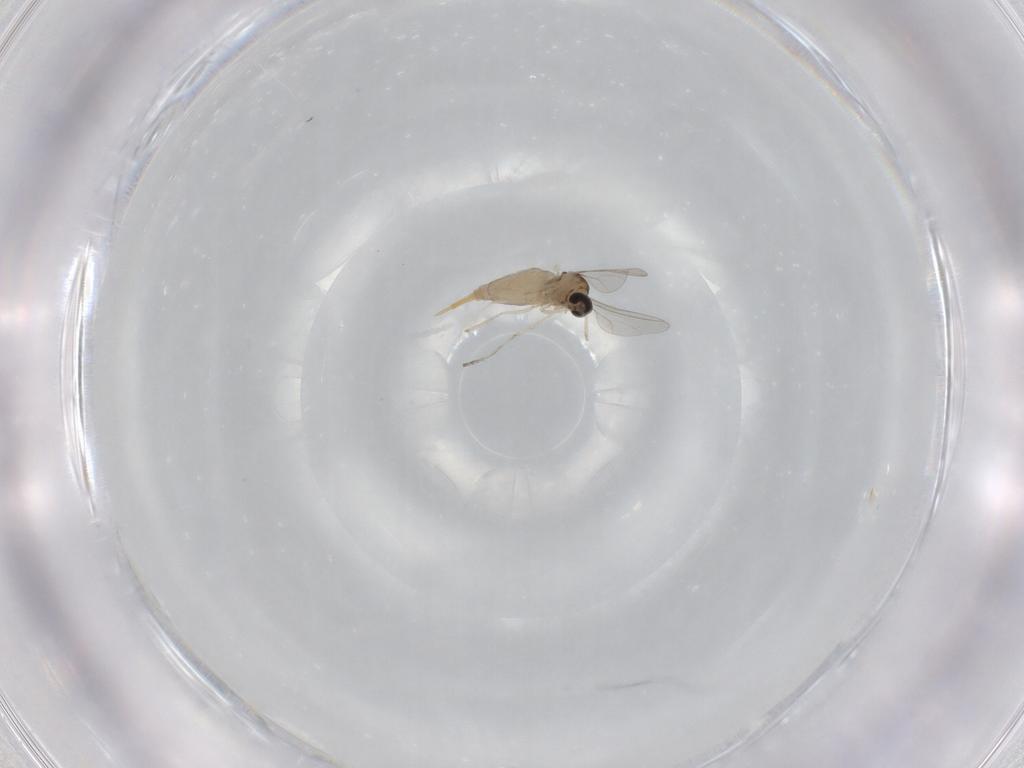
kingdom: Animalia
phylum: Arthropoda
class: Insecta
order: Diptera
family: Cecidomyiidae
